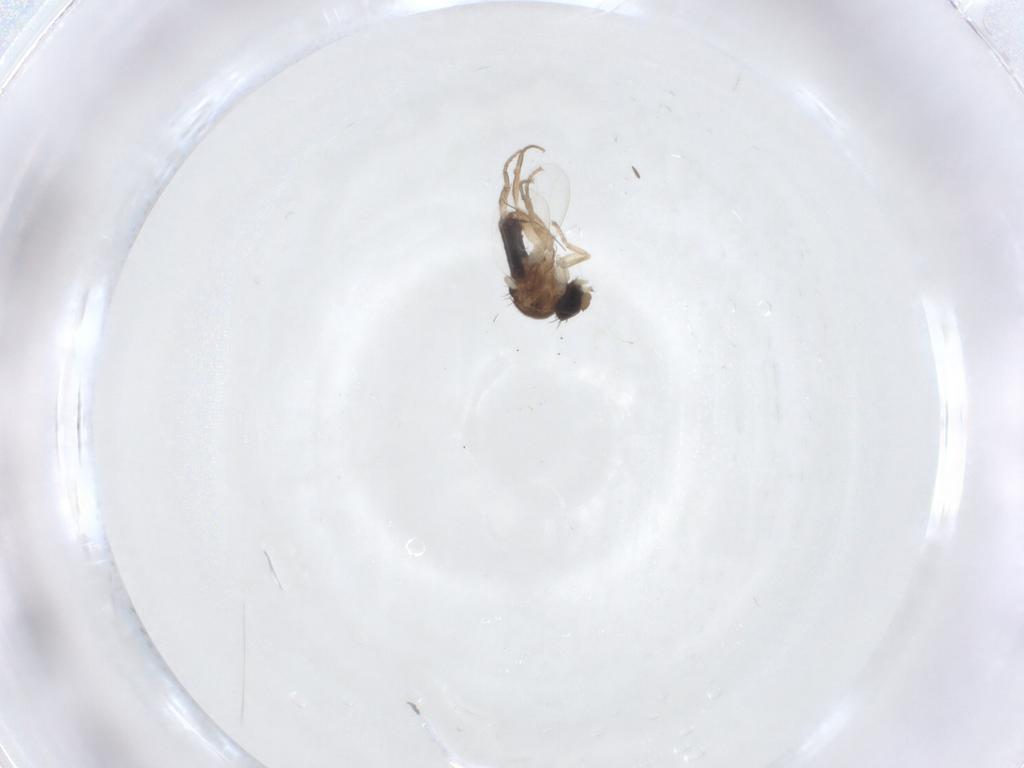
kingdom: Animalia
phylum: Arthropoda
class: Insecta
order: Diptera
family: Phoridae
